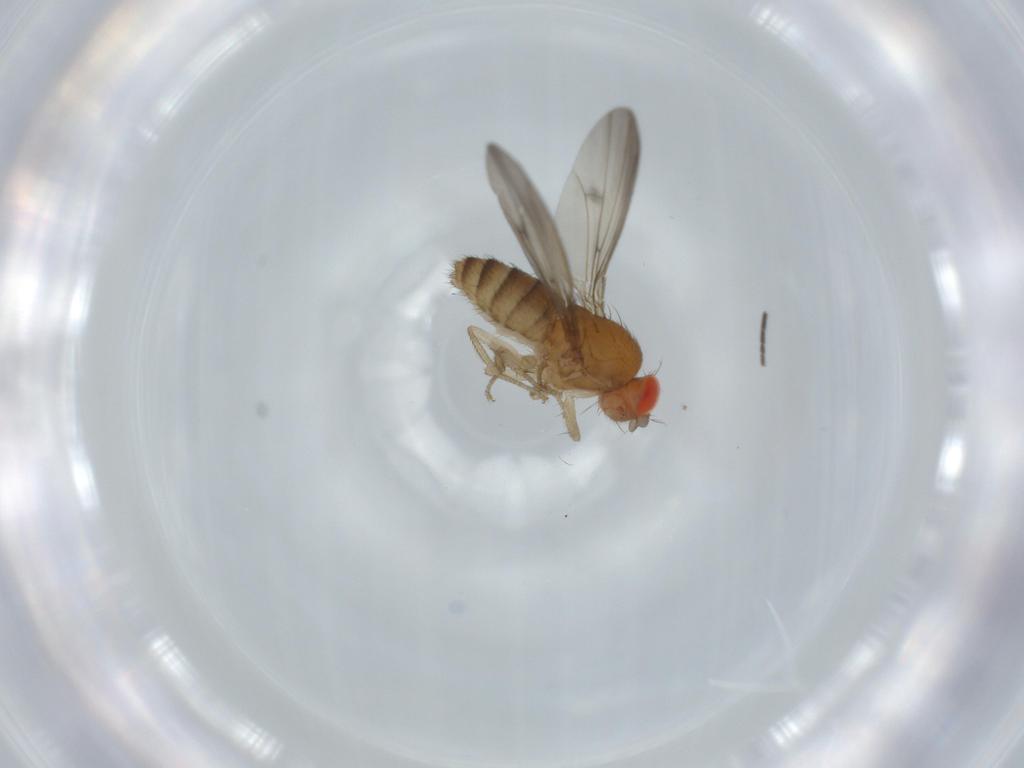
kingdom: Animalia
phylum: Arthropoda
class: Insecta
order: Diptera
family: Drosophilidae
